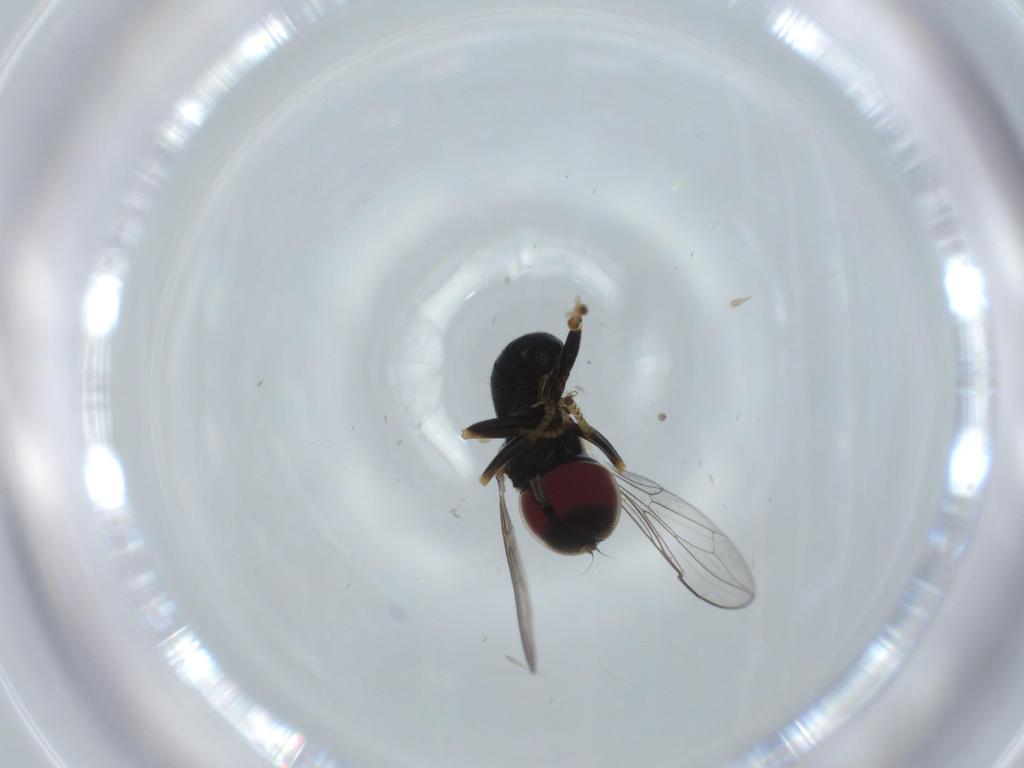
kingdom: Animalia
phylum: Arthropoda
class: Insecta
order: Diptera
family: Pipunculidae
